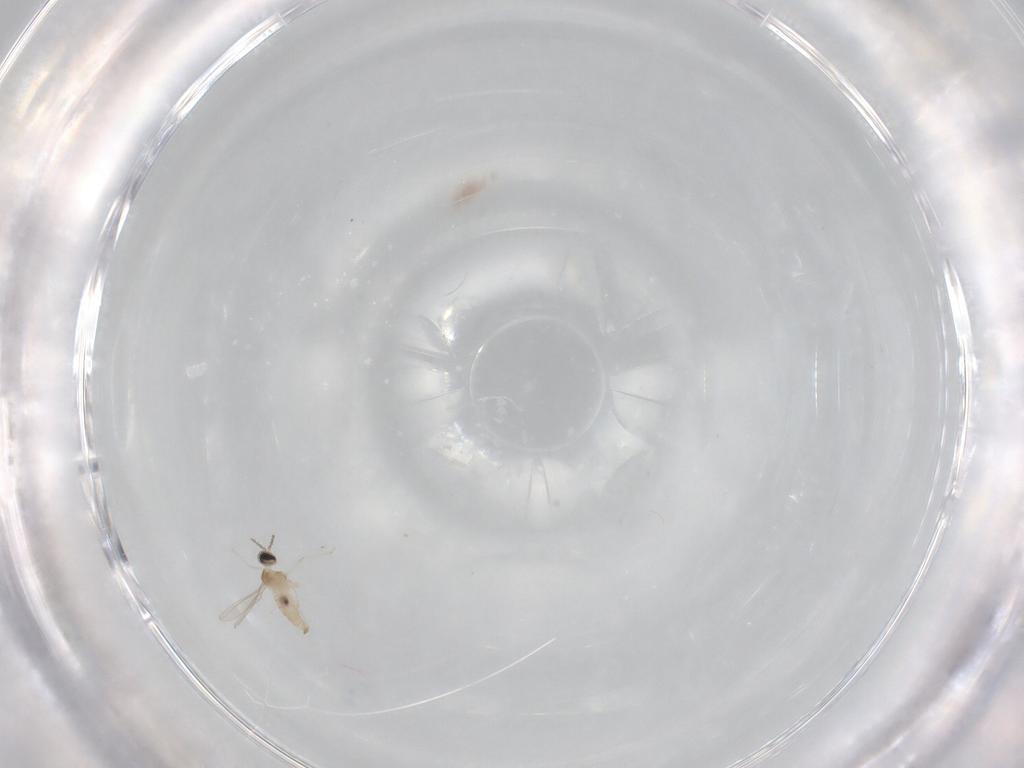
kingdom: Animalia
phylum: Arthropoda
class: Insecta
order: Diptera
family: Cecidomyiidae
